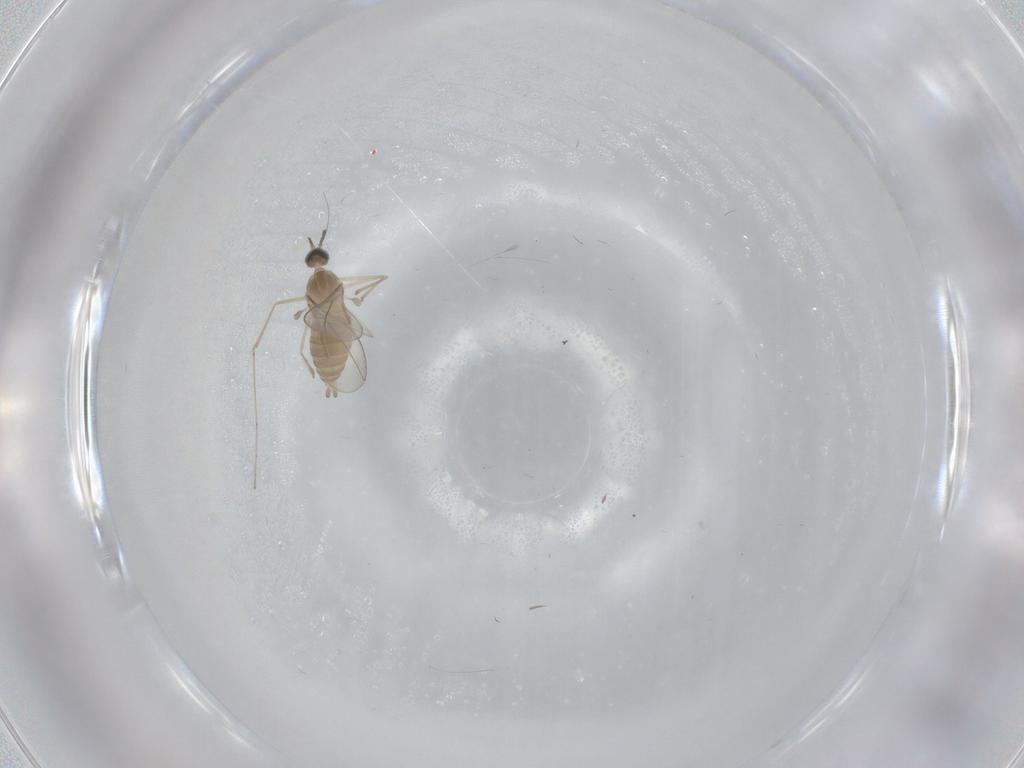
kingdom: Animalia
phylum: Arthropoda
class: Insecta
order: Diptera
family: Cecidomyiidae
